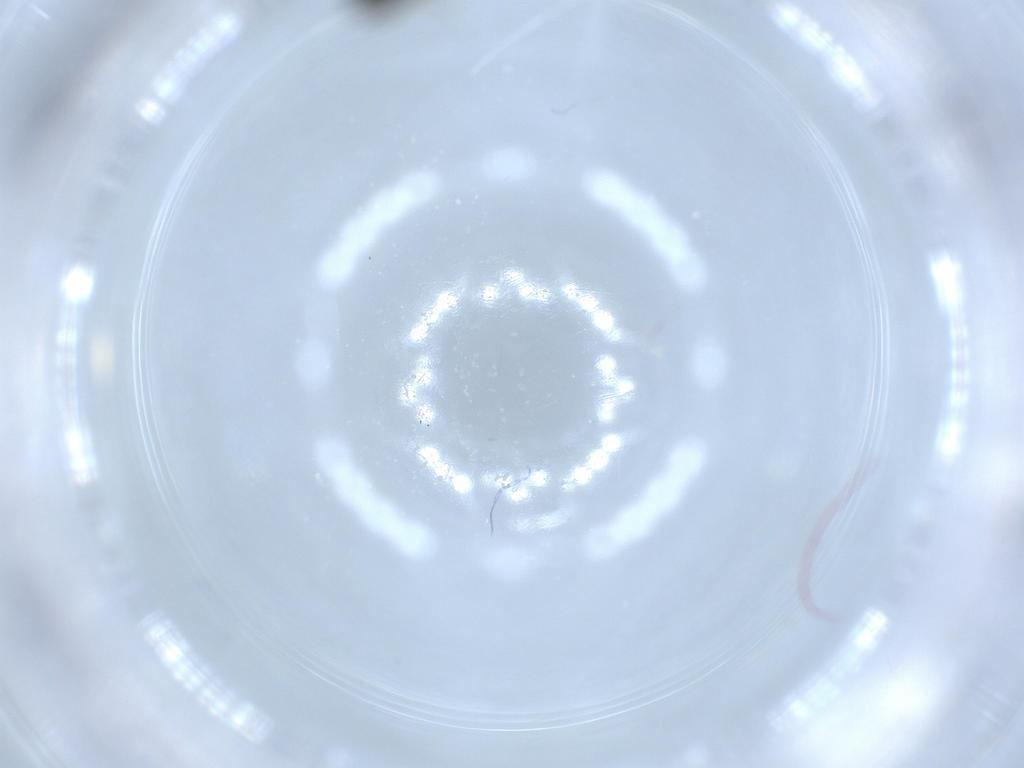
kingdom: Animalia
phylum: Arthropoda
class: Insecta
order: Hymenoptera
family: Scelionidae
